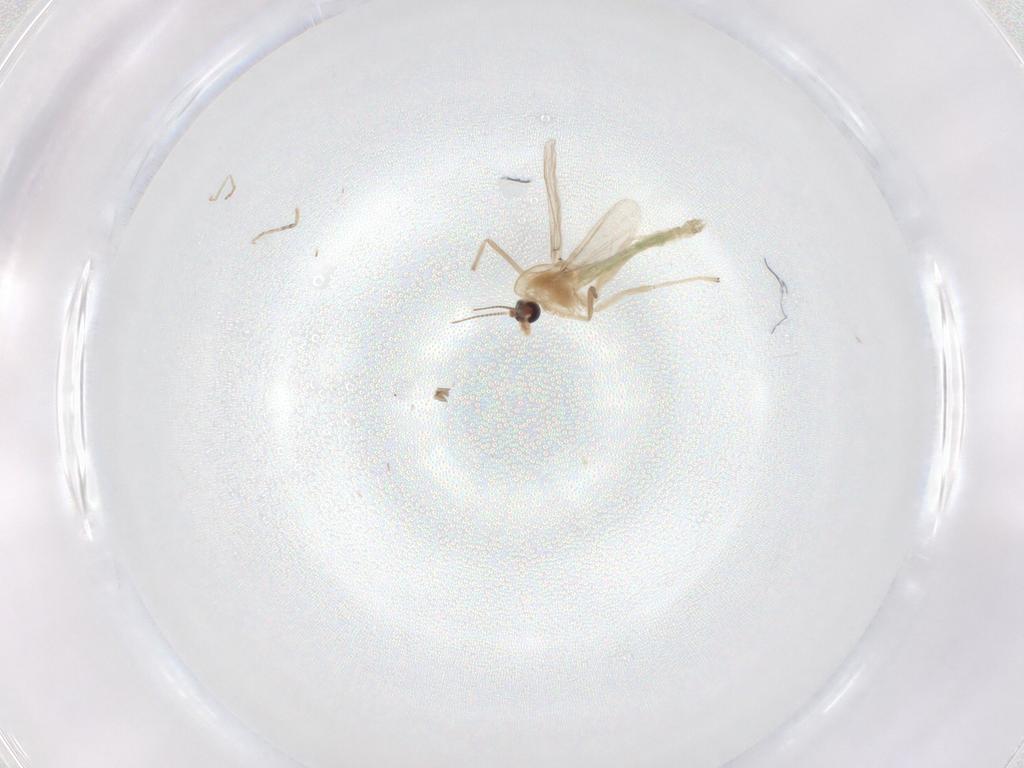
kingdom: Animalia
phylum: Arthropoda
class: Insecta
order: Diptera
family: Chironomidae
